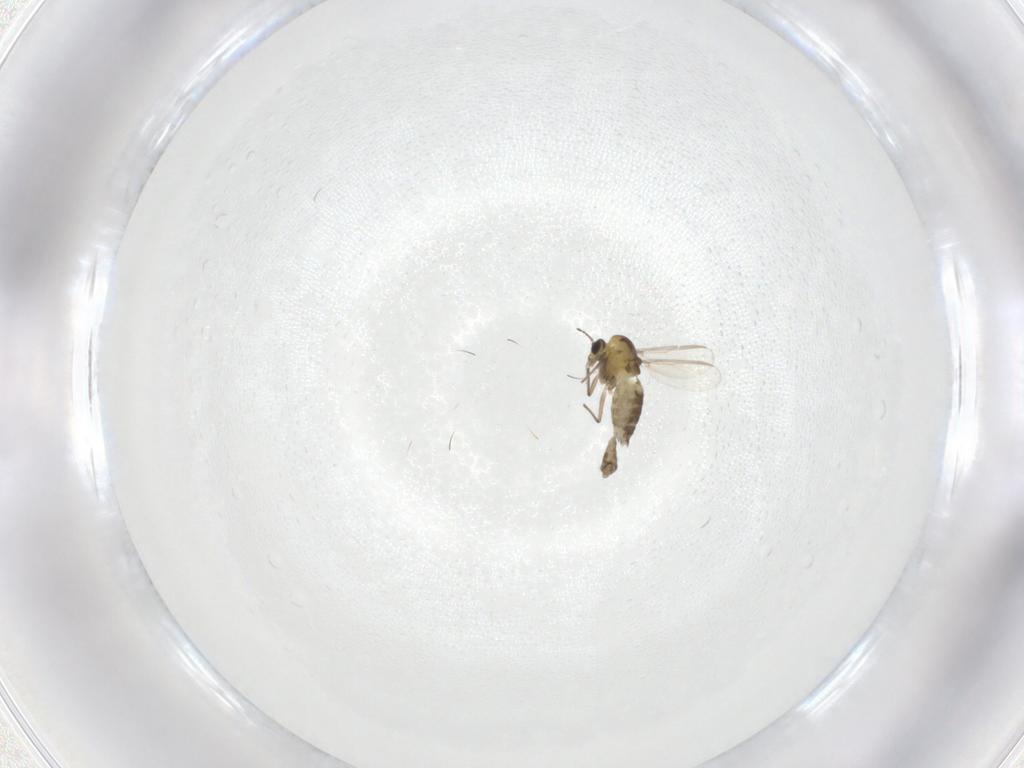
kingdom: Animalia
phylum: Arthropoda
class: Insecta
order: Diptera
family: Chironomidae
